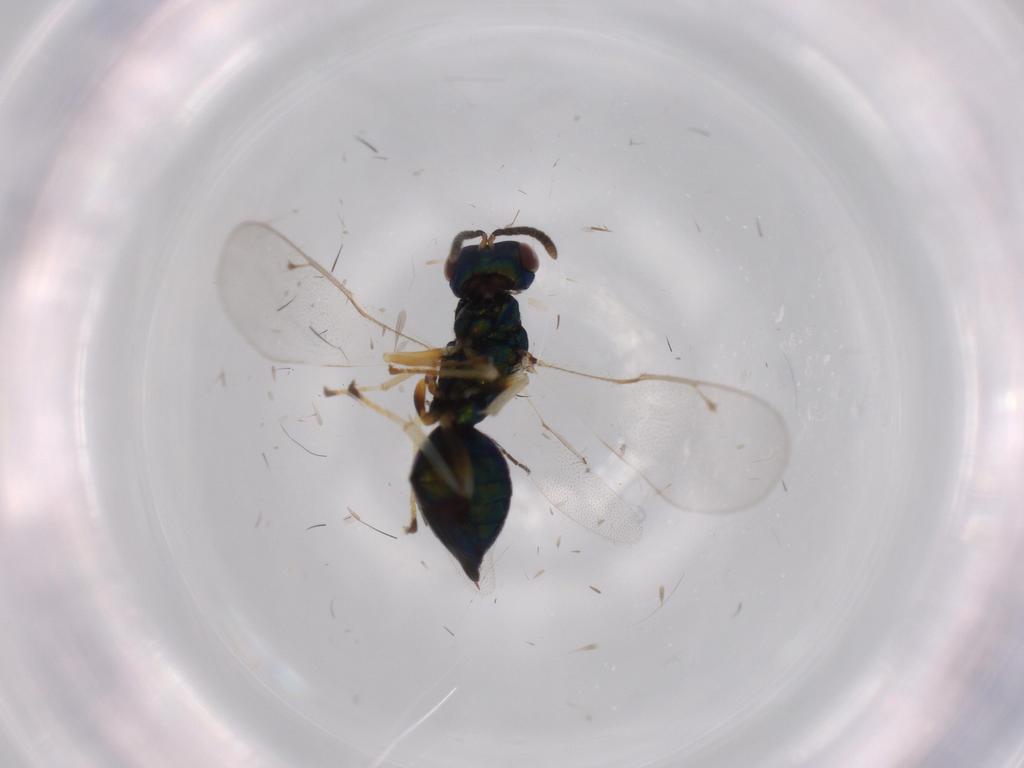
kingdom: Animalia
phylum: Arthropoda
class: Insecta
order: Hymenoptera
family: Pteromalidae
